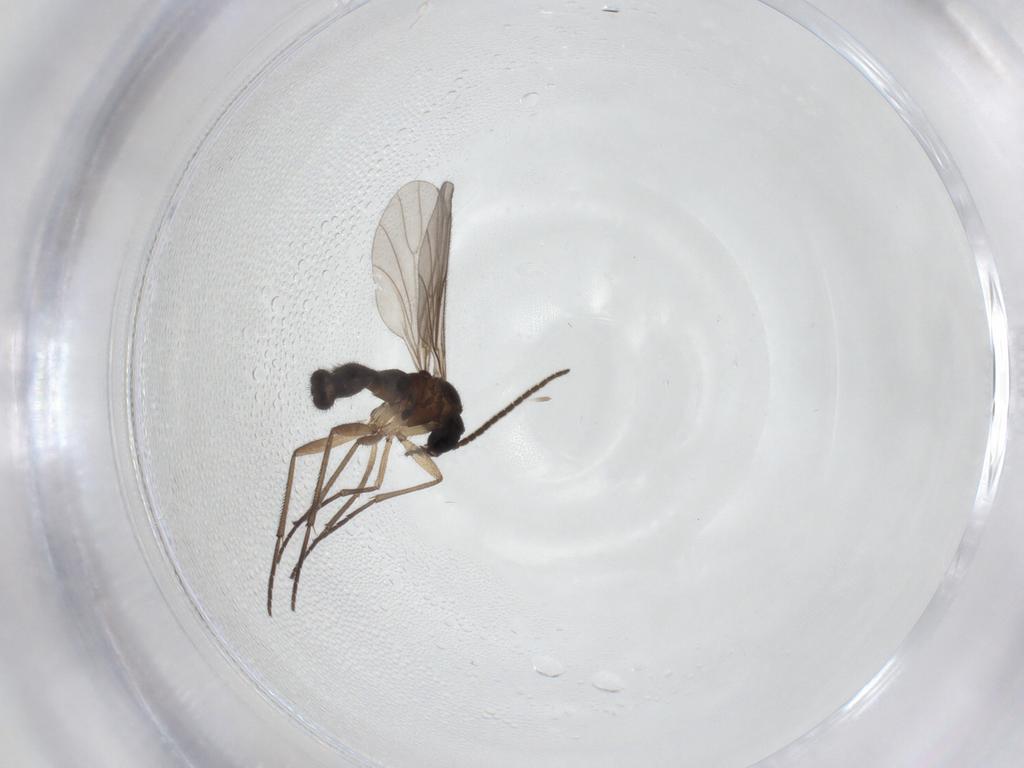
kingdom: Animalia
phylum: Arthropoda
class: Insecta
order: Diptera
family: Sciaridae
